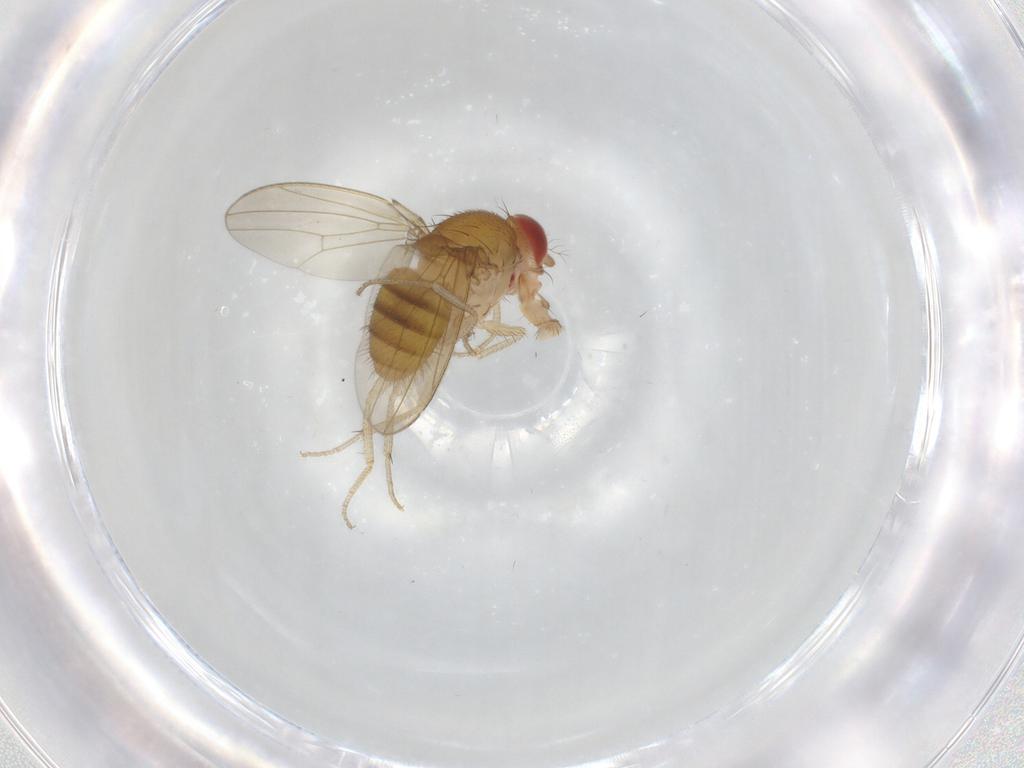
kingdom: Animalia
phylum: Arthropoda
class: Insecta
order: Diptera
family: Drosophilidae
